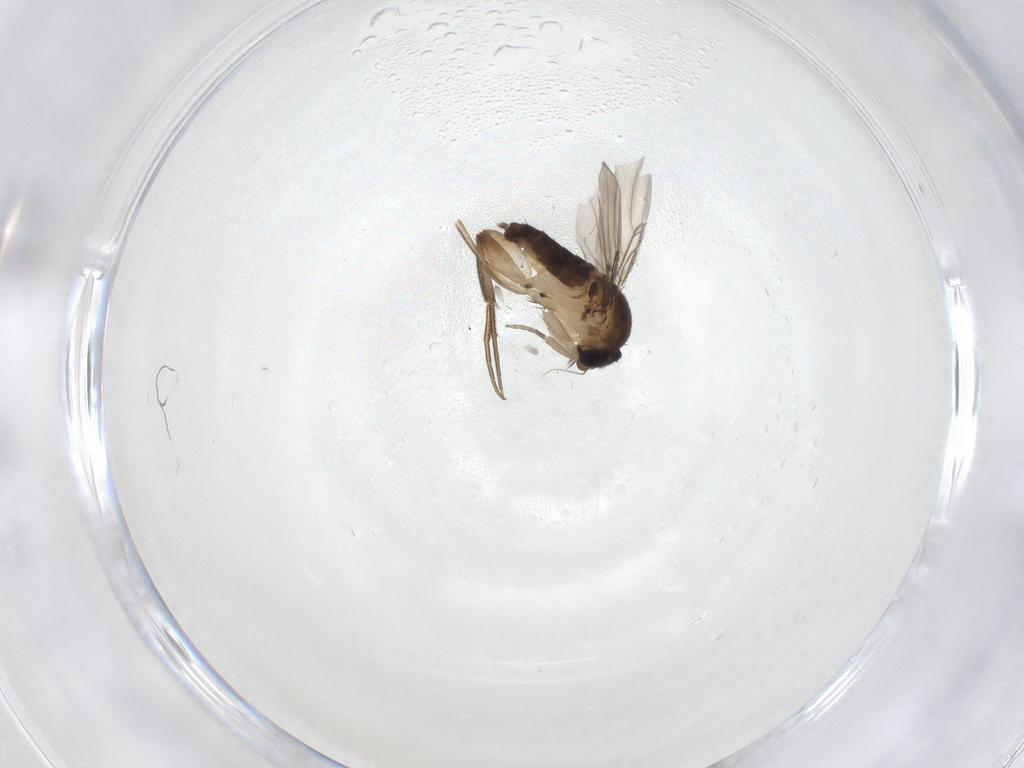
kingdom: Animalia
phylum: Arthropoda
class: Insecta
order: Diptera
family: Phoridae
